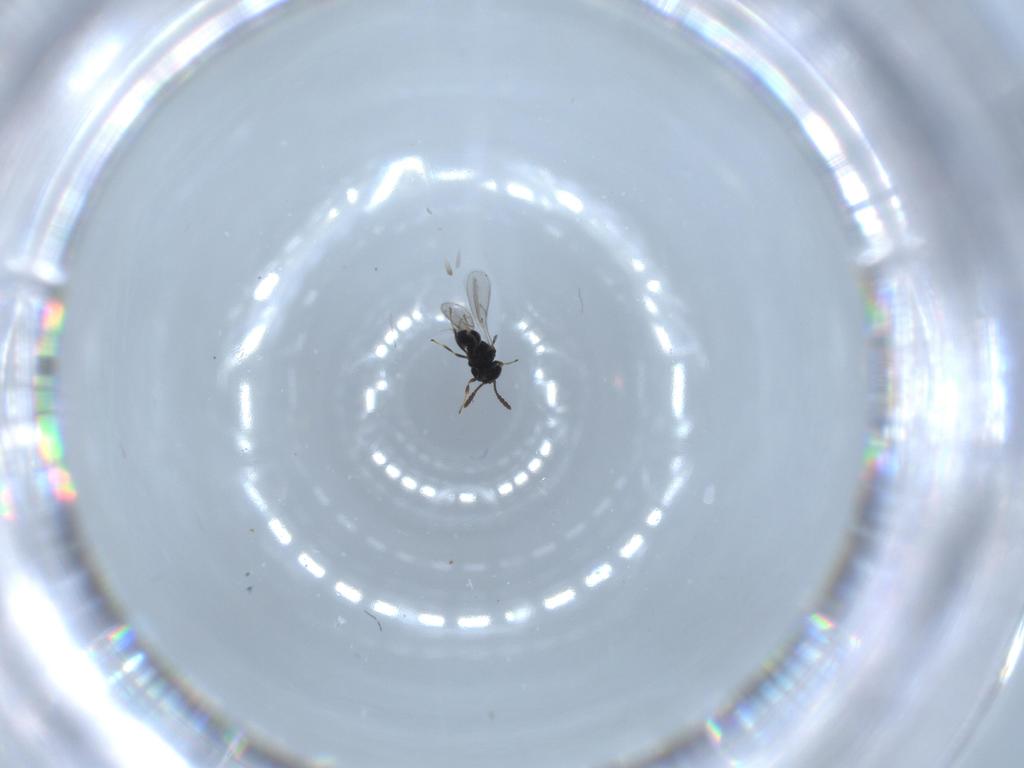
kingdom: Animalia
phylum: Arthropoda
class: Insecta
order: Hymenoptera
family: Scelionidae
